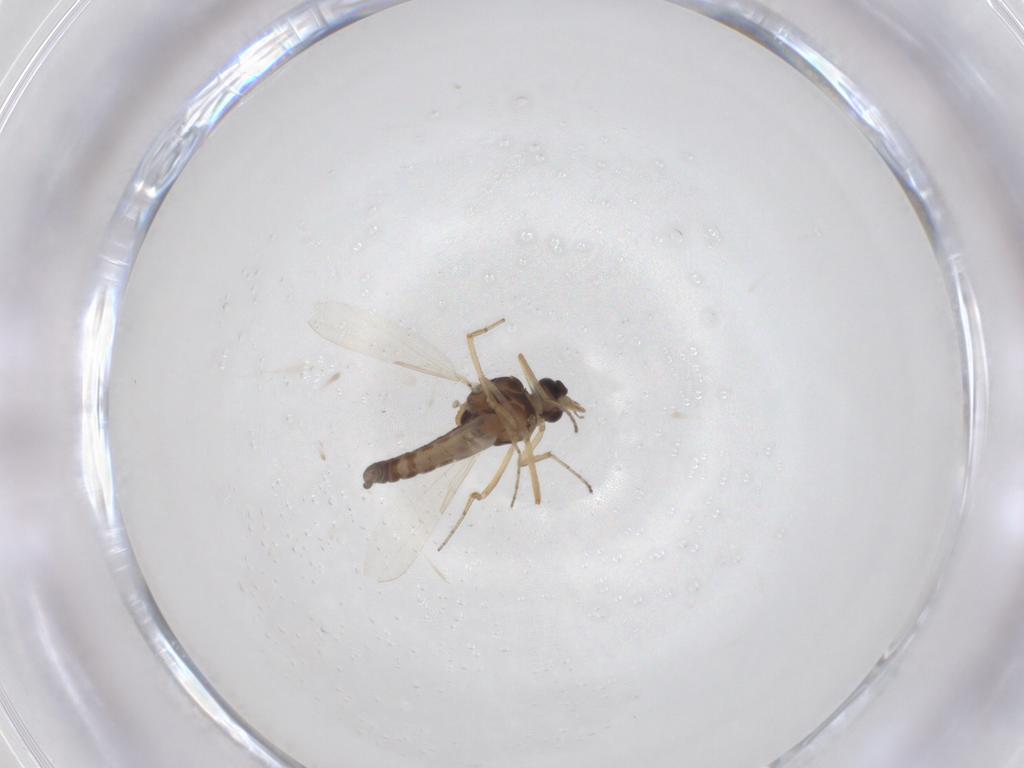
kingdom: Animalia
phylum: Arthropoda
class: Insecta
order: Diptera
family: Ceratopogonidae
